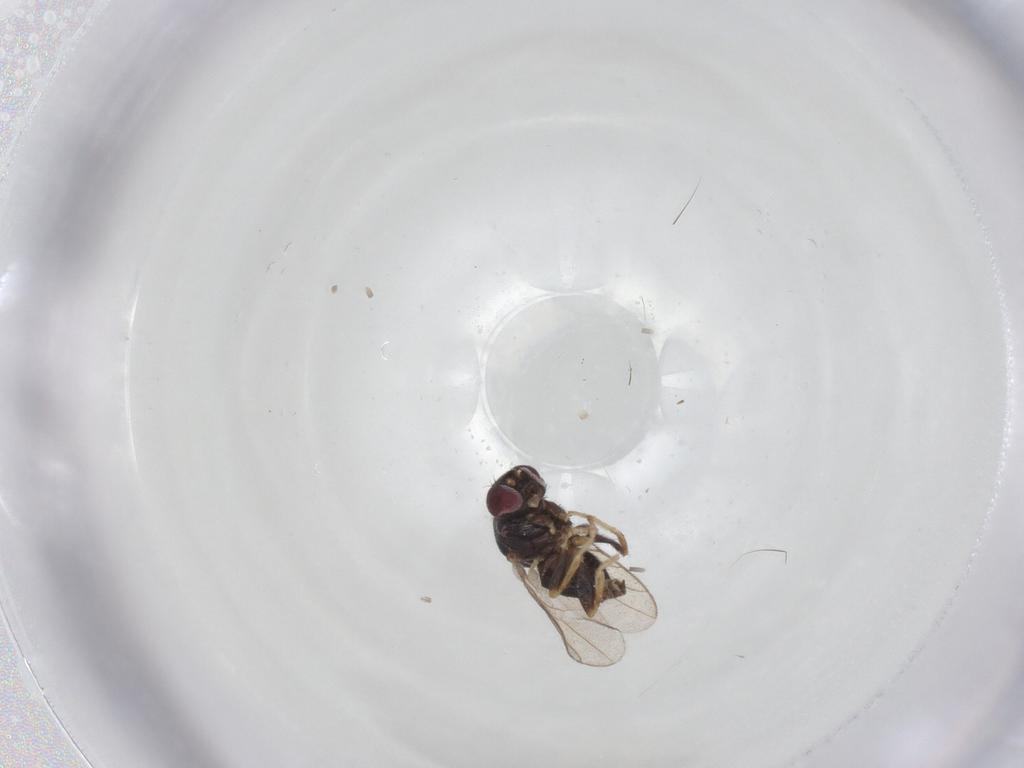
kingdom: Animalia
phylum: Arthropoda
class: Insecta
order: Diptera
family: Chloropidae
